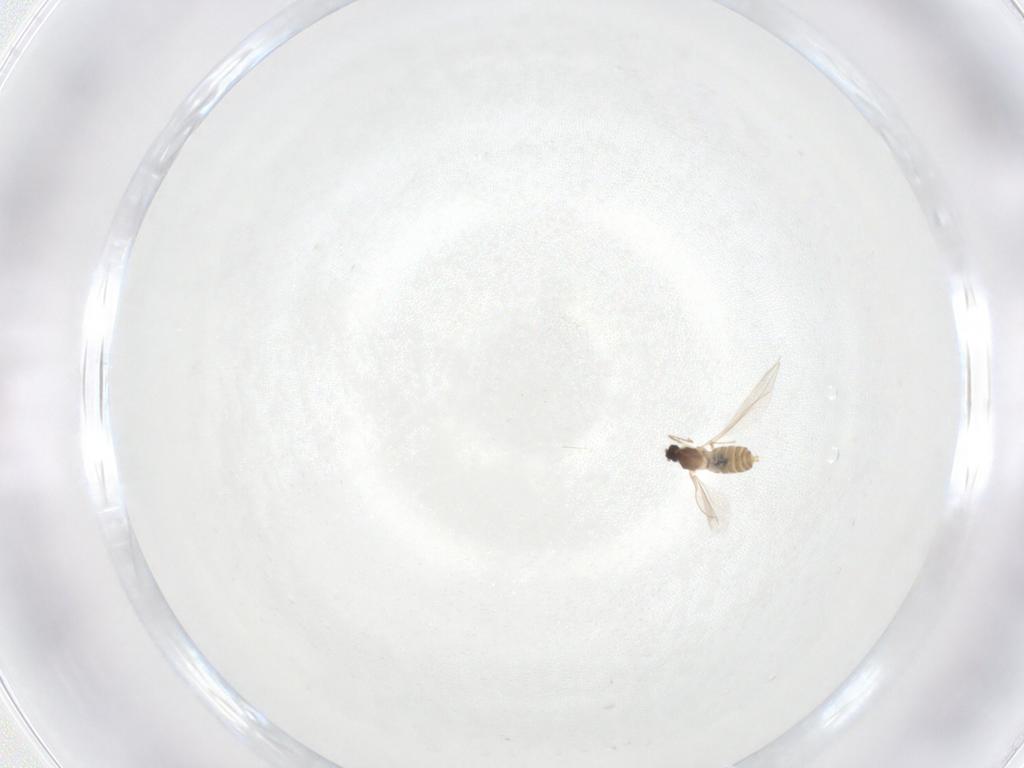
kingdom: Animalia
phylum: Arthropoda
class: Insecta
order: Diptera
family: Cecidomyiidae
